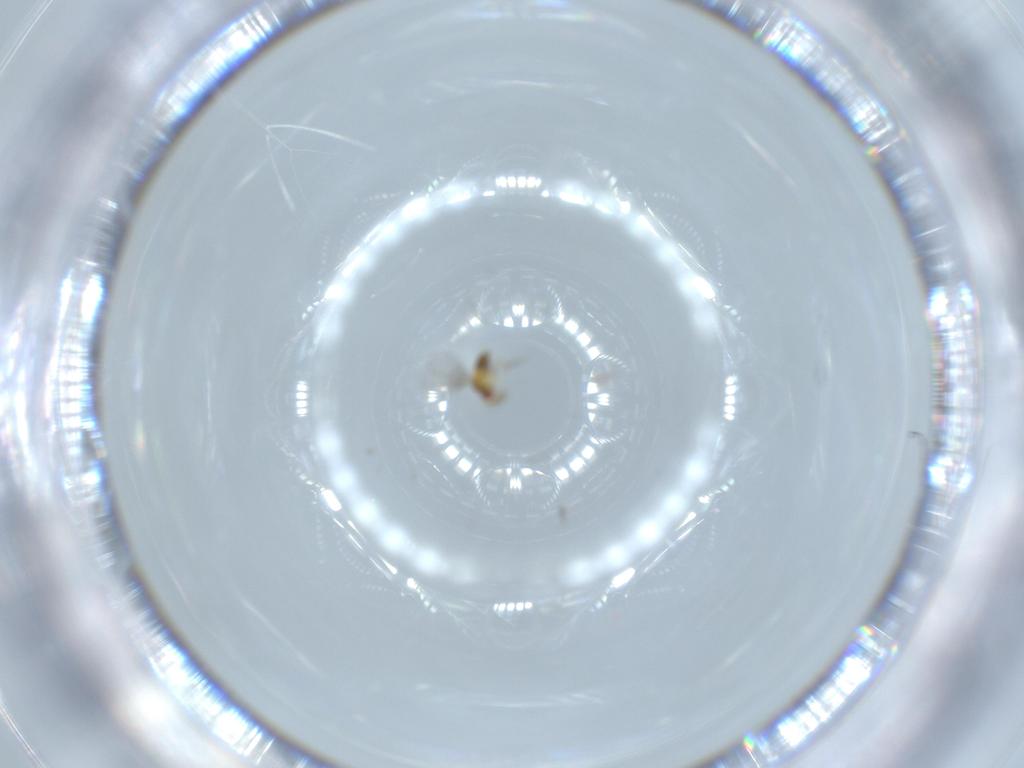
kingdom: Animalia
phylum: Arthropoda
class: Insecta
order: Hymenoptera
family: Trichogrammatidae
